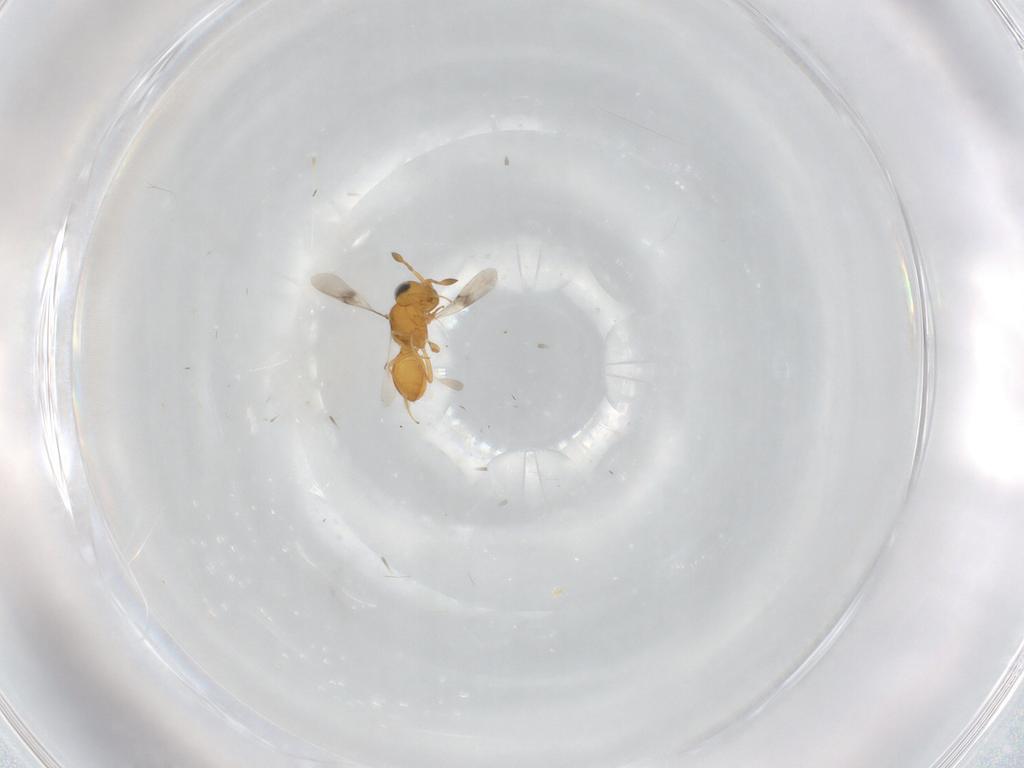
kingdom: Animalia
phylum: Arthropoda
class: Insecta
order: Hymenoptera
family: Scelionidae
